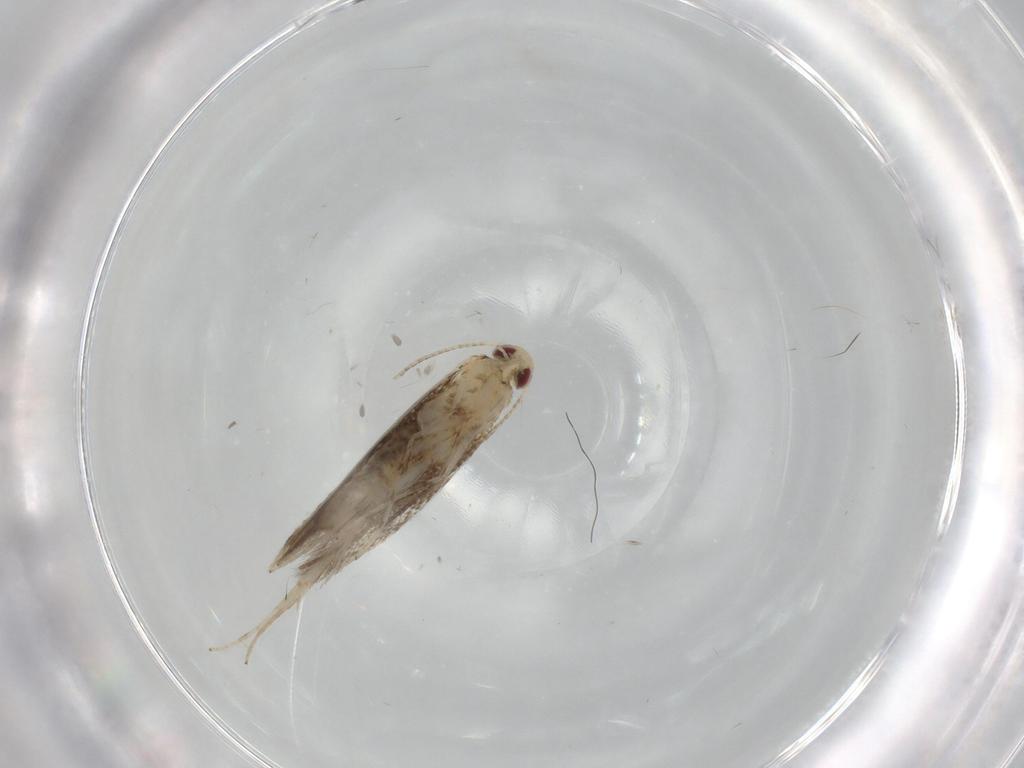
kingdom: Animalia
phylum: Arthropoda
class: Insecta
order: Lepidoptera
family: Gracillariidae
